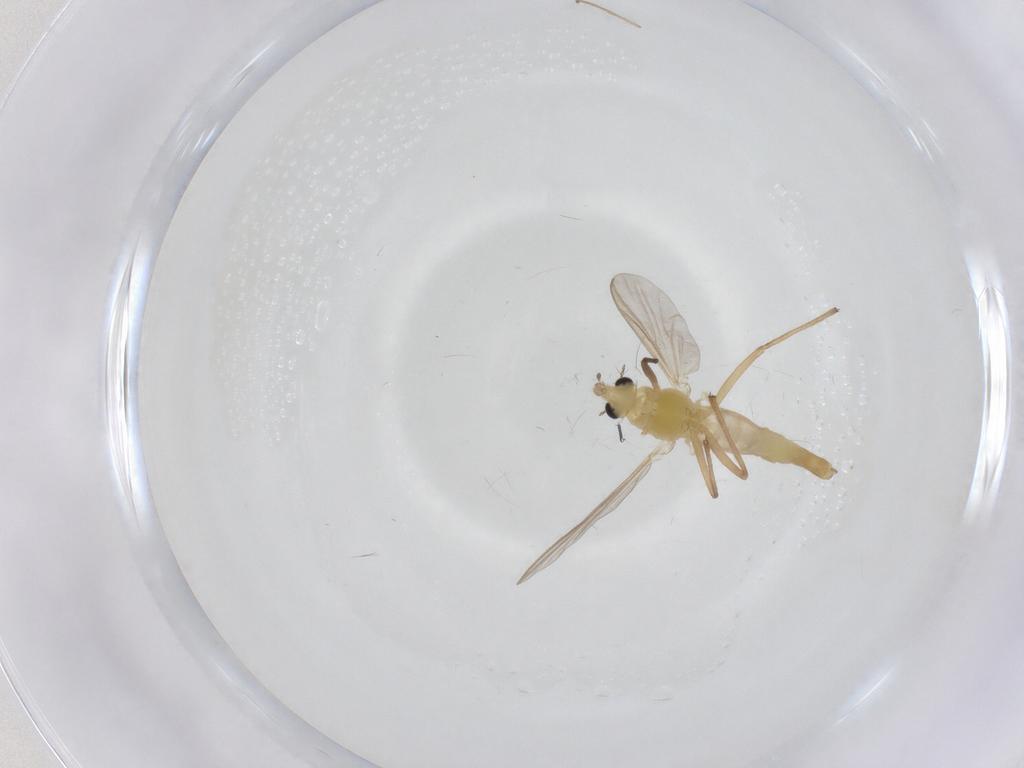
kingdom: Animalia
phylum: Arthropoda
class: Insecta
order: Diptera
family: Chironomidae
